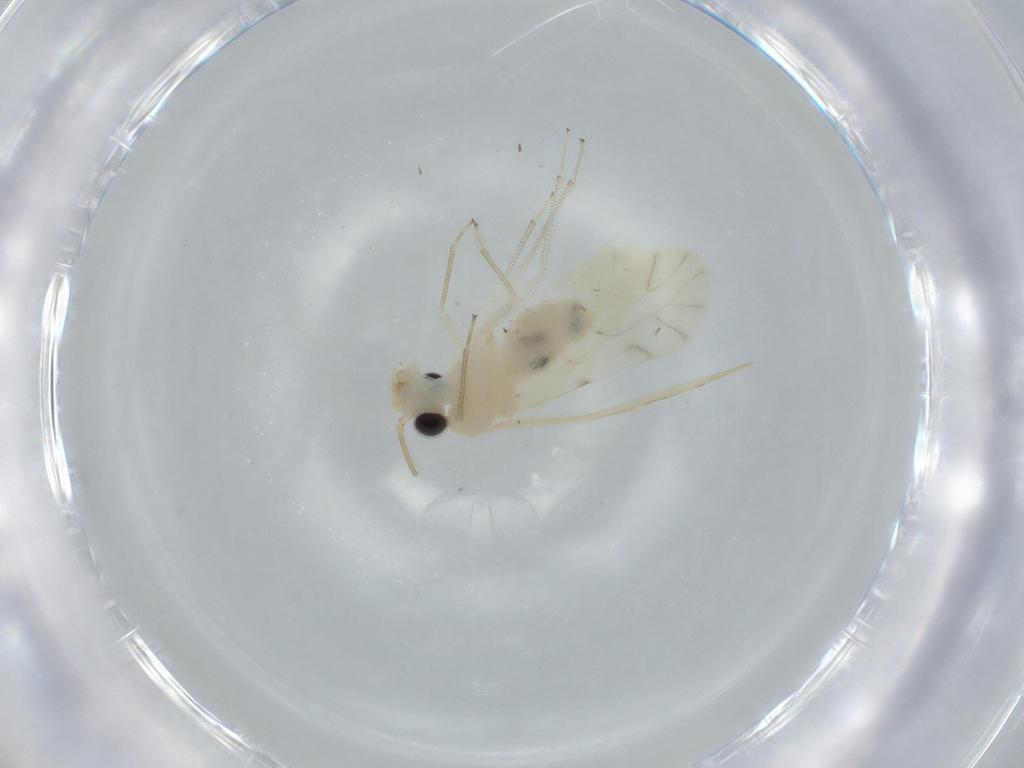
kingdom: Animalia
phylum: Arthropoda
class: Insecta
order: Psocodea
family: Caeciliusidae
